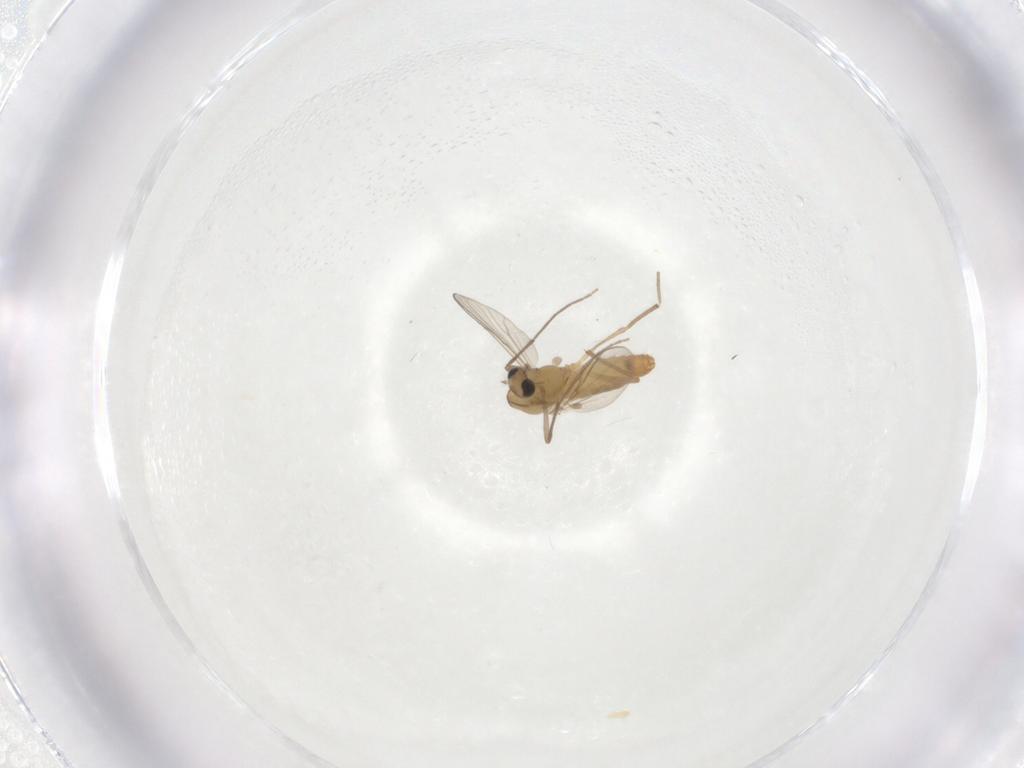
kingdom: Animalia
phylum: Arthropoda
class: Insecta
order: Diptera
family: Chironomidae
